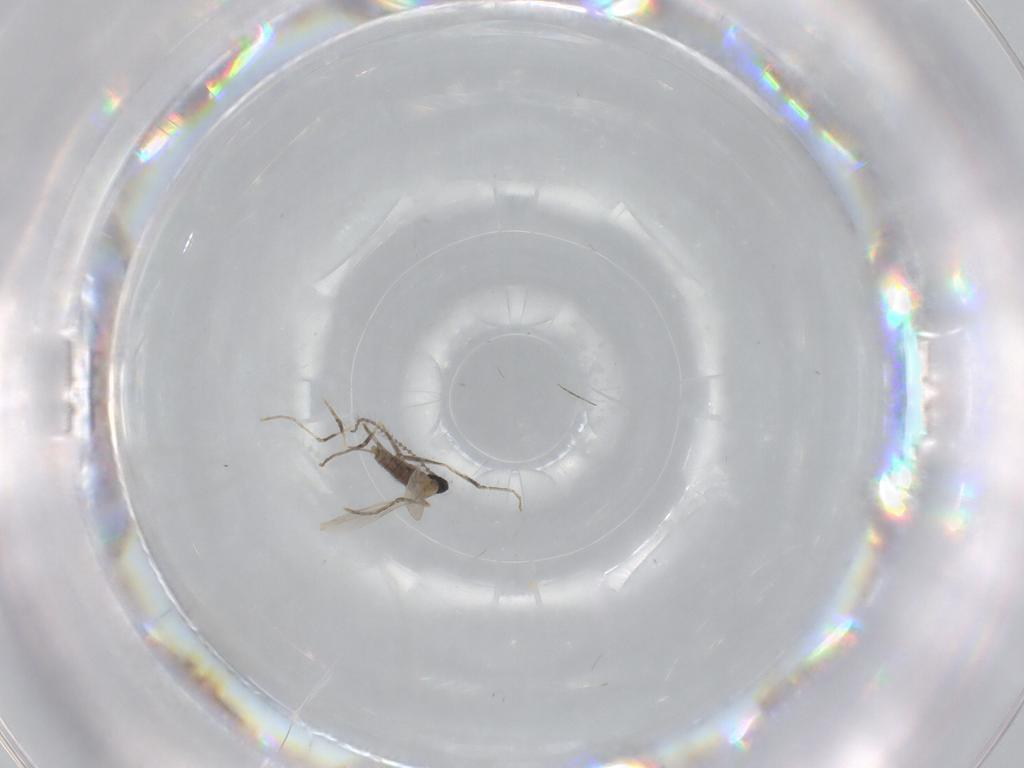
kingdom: Animalia
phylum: Arthropoda
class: Insecta
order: Diptera
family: Cecidomyiidae
